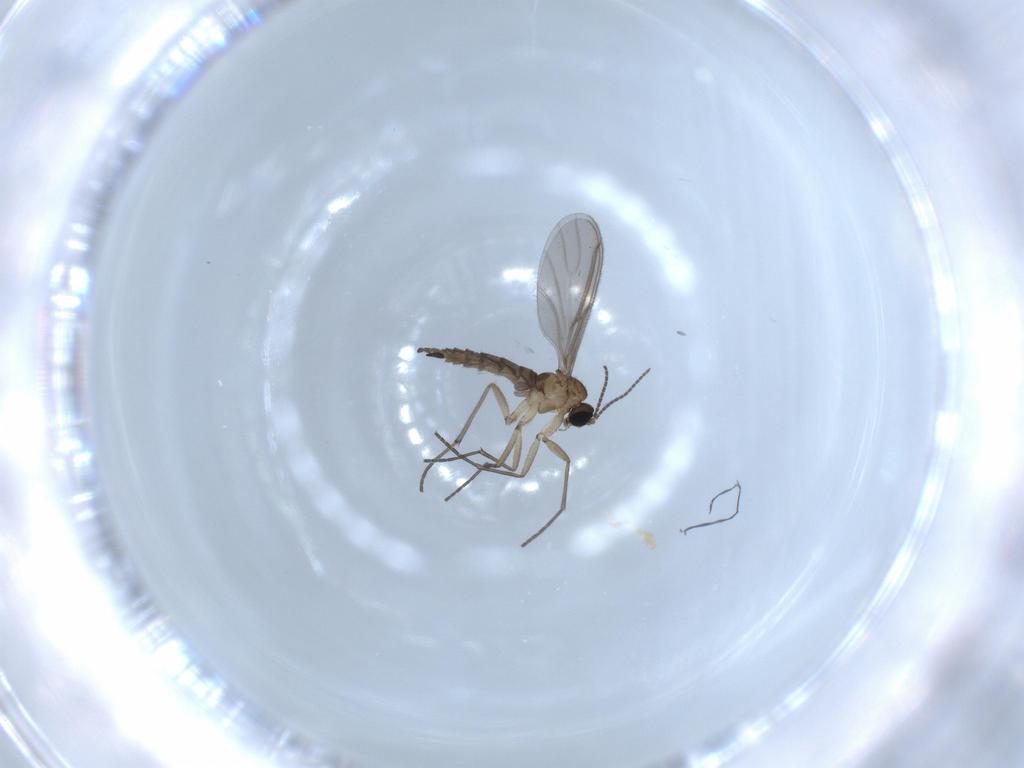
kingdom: Animalia
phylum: Arthropoda
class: Insecta
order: Diptera
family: Sciaridae
